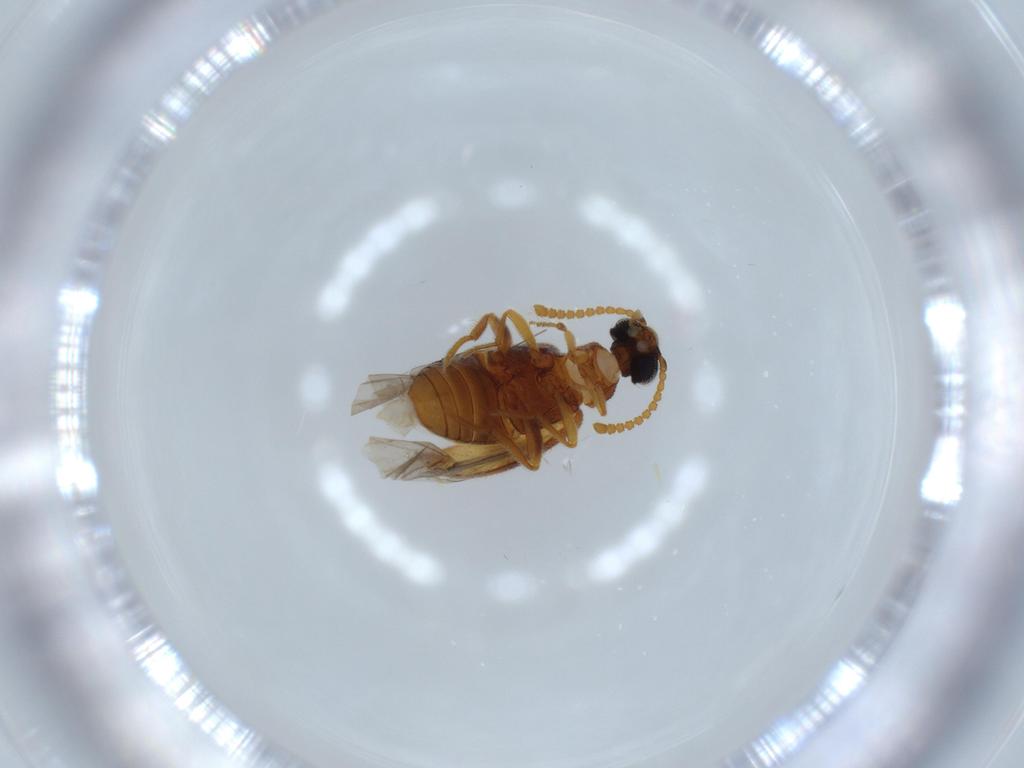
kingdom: Animalia
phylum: Arthropoda
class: Insecta
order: Coleoptera
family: Aderidae
